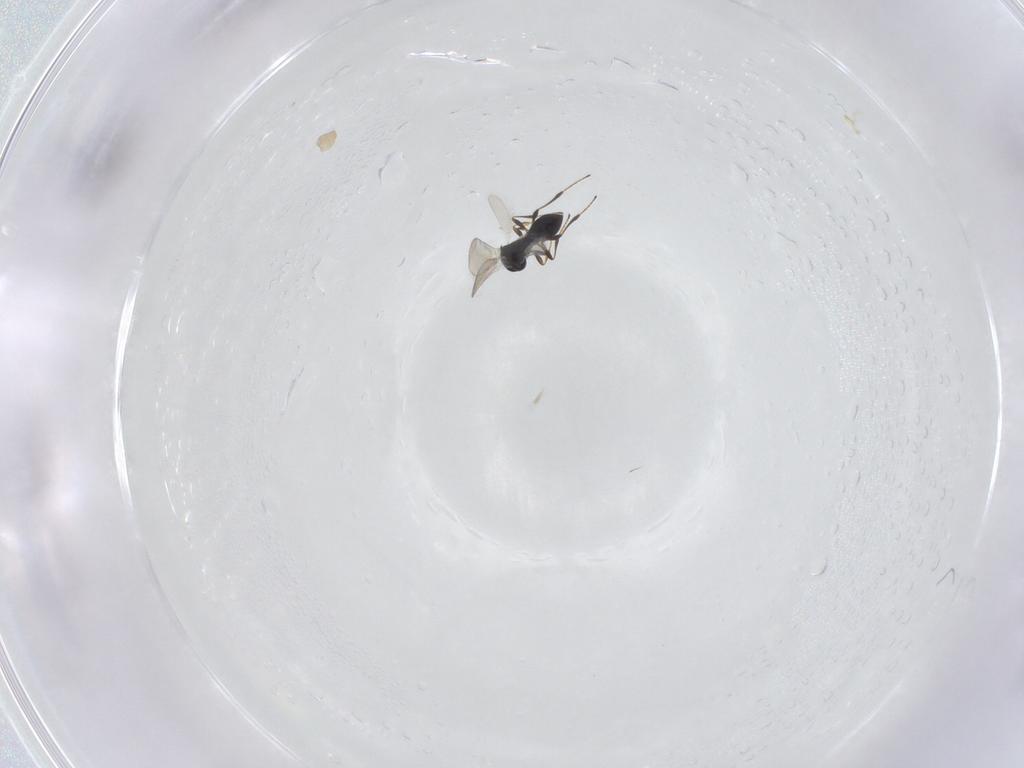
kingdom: Animalia
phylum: Arthropoda
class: Insecta
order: Hymenoptera
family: Platygastridae
